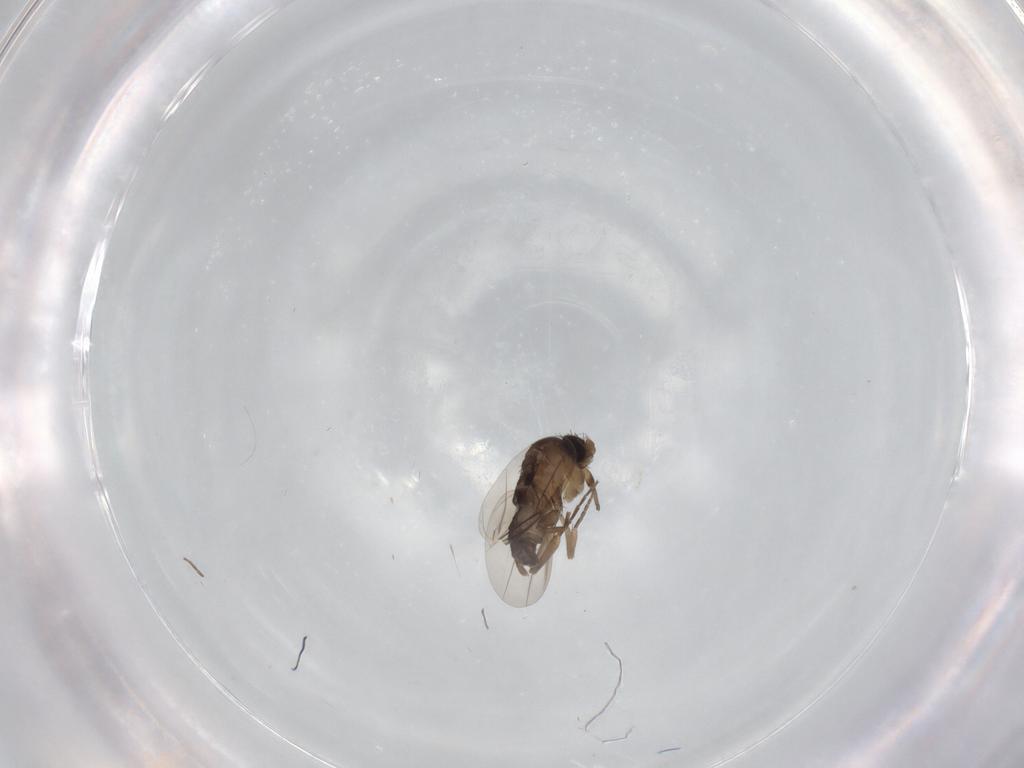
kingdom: Animalia
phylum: Arthropoda
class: Insecta
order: Diptera
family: Phoridae
